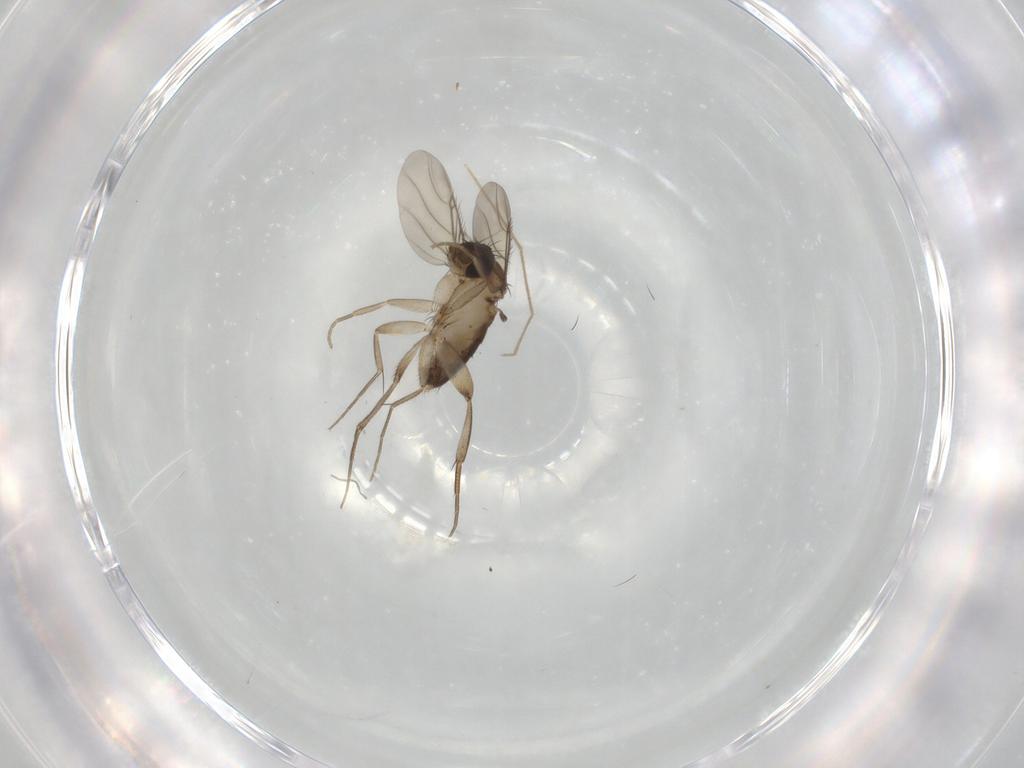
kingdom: Animalia
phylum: Arthropoda
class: Insecta
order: Diptera
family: Phoridae
